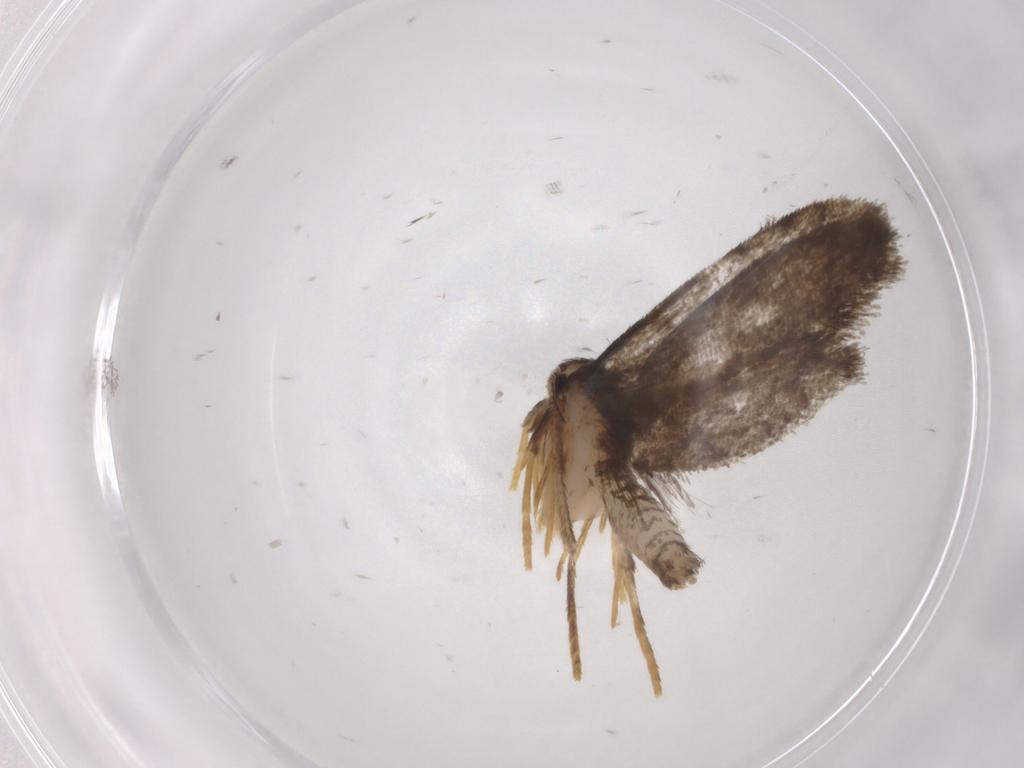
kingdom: Animalia
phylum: Arthropoda
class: Insecta
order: Lepidoptera
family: Psychidae
